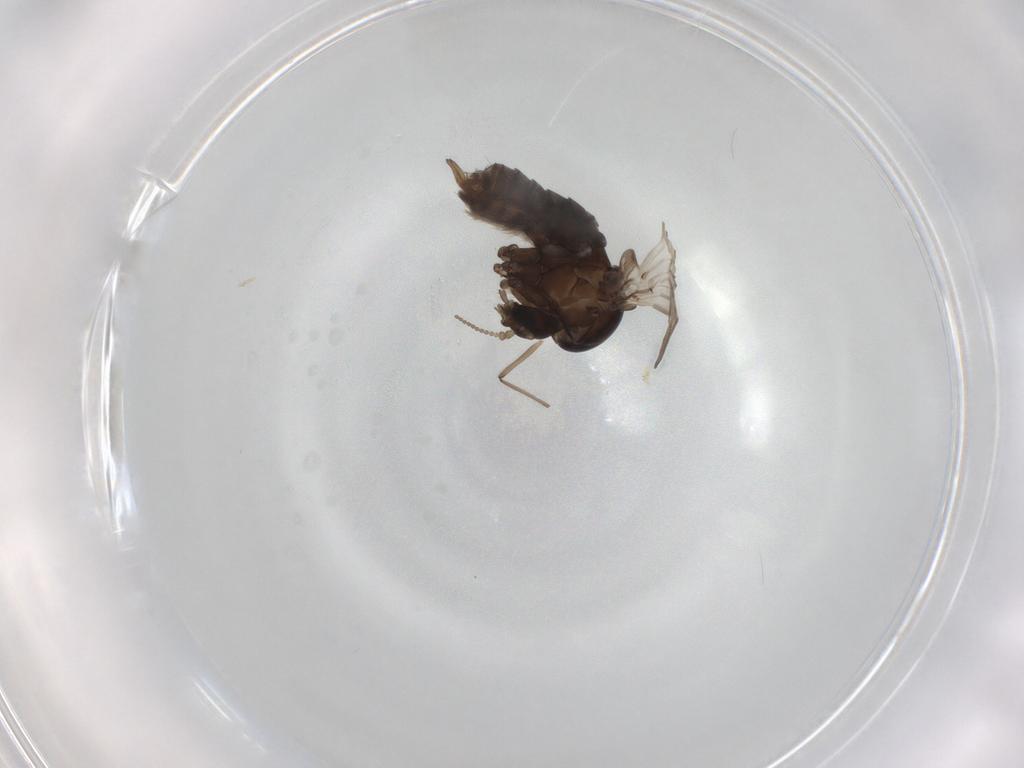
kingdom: Animalia
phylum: Arthropoda
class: Insecta
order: Diptera
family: Psychodidae
